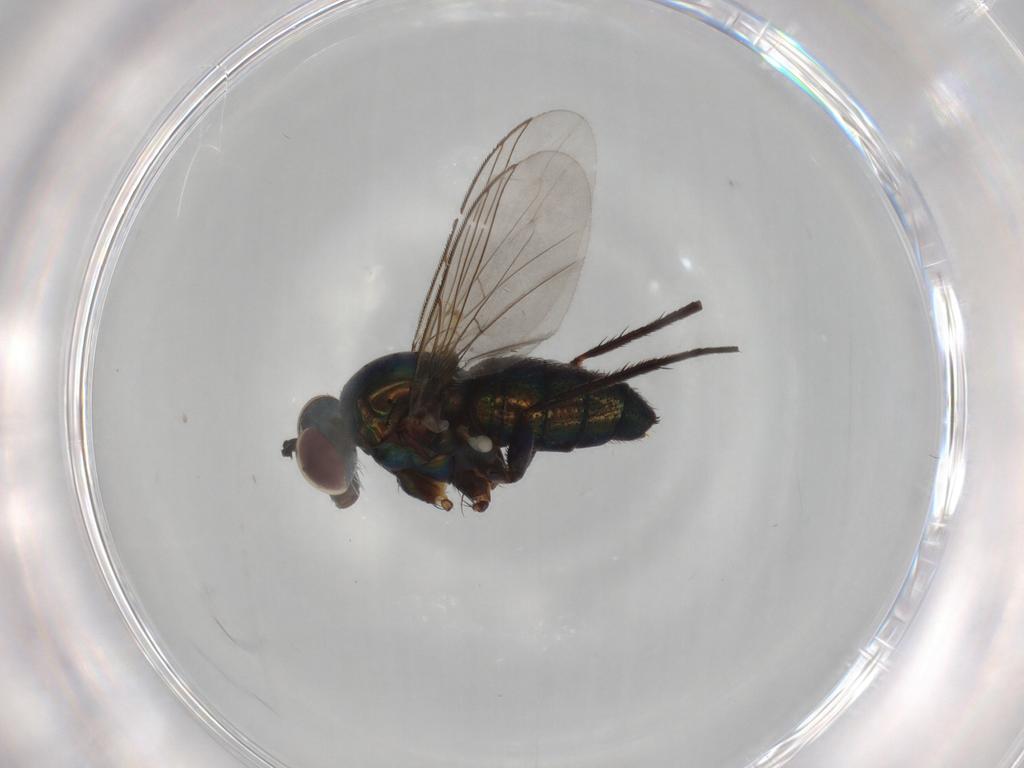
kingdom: Animalia
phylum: Arthropoda
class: Insecta
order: Diptera
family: Dolichopodidae
